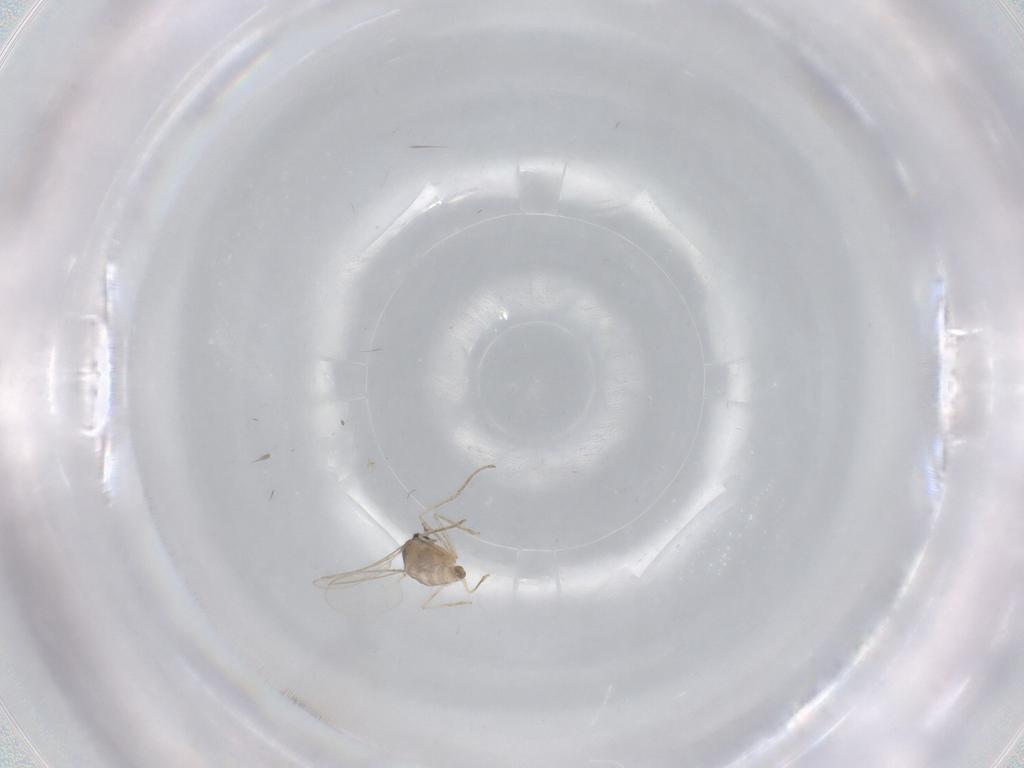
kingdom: Animalia
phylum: Arthropoda
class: Insecta
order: Diptera
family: Cecidomyiidae
